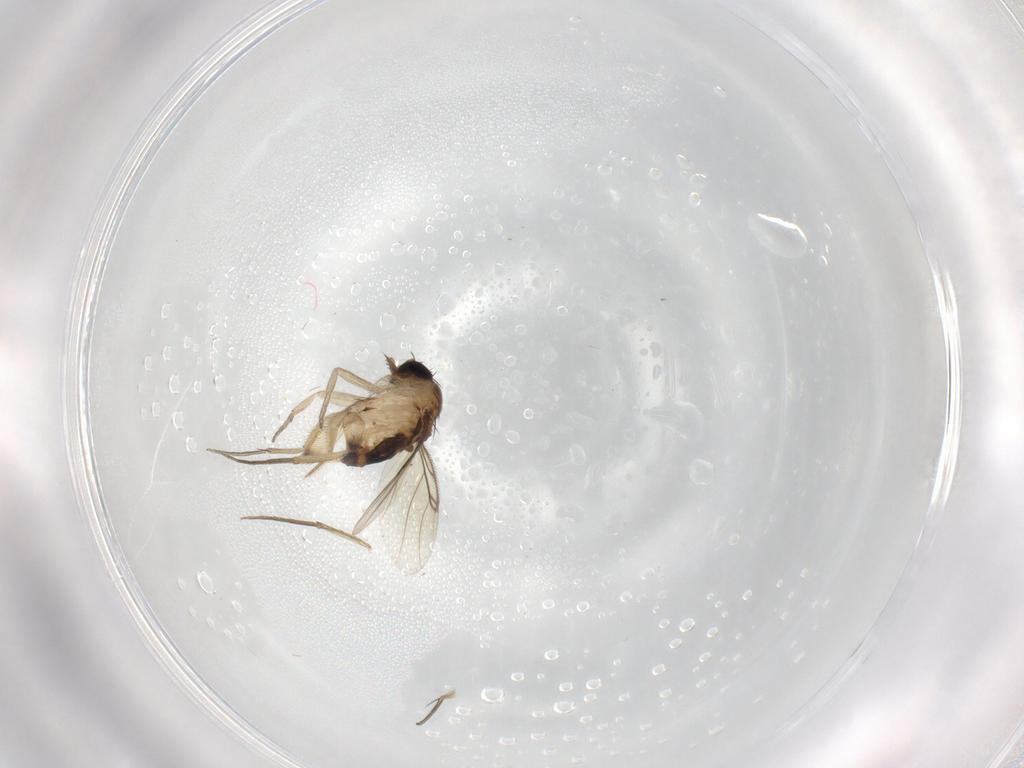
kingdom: Animalia
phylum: Arthropoda
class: Insecta
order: Diptera
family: Phoridae
